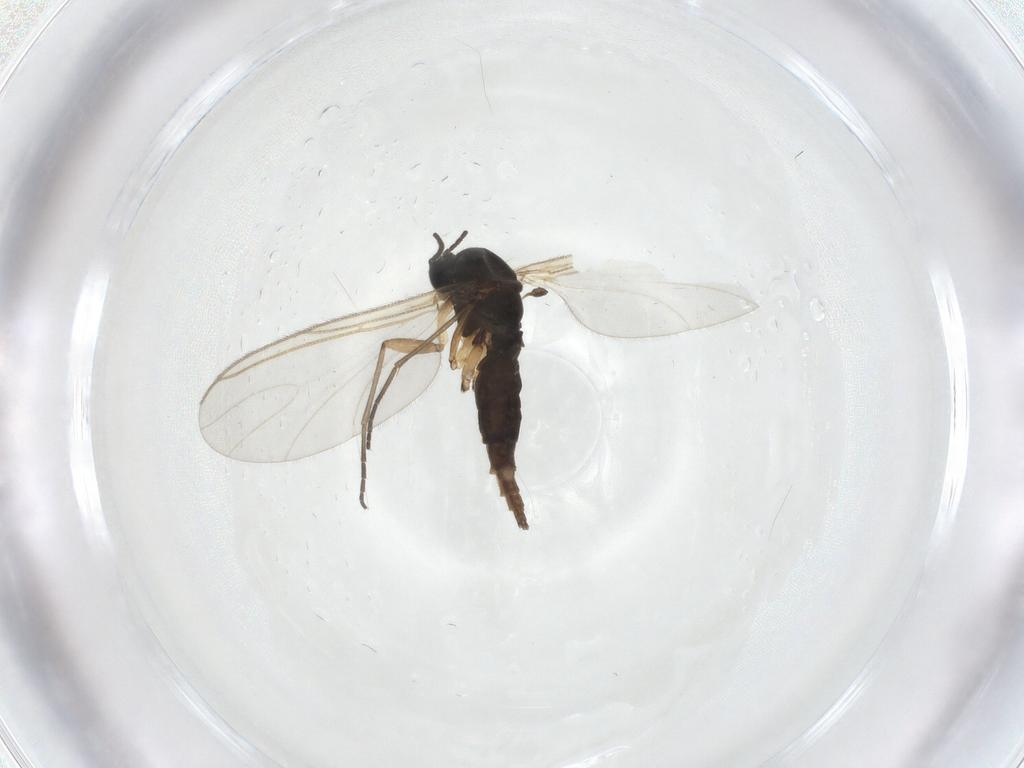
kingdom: Animalia
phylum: Arthropoda
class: Insecta
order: Diptera
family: Sciaridae
